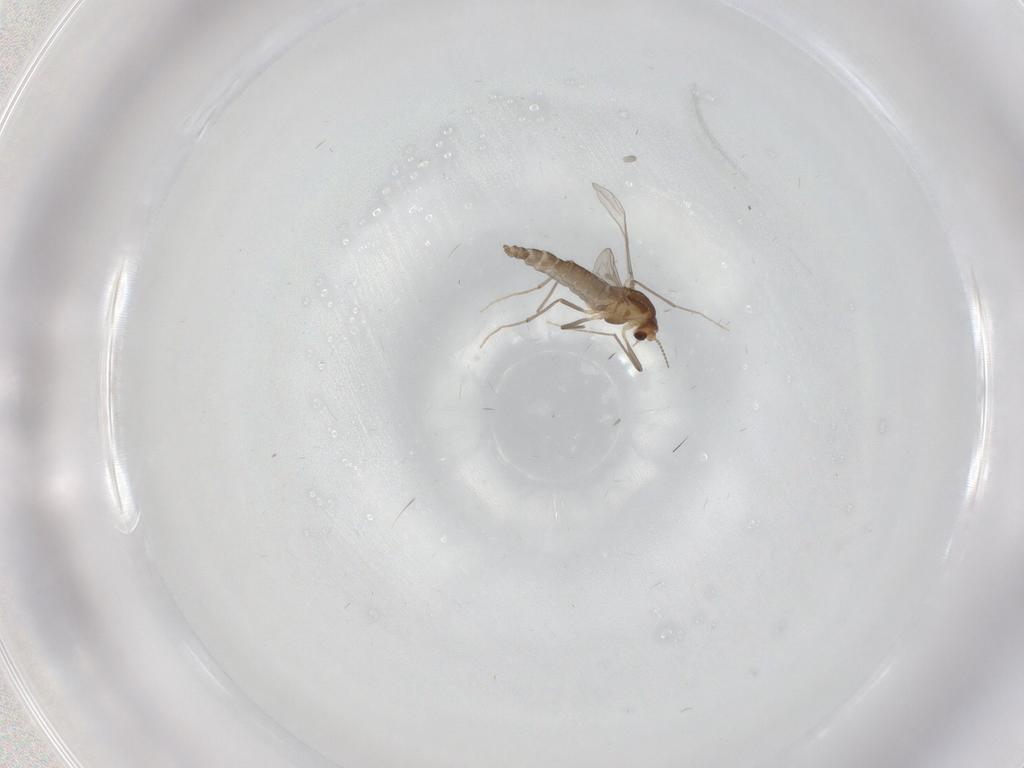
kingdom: Animalia
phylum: Arthropoda
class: Insecta
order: Diptera
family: Chironomidae
